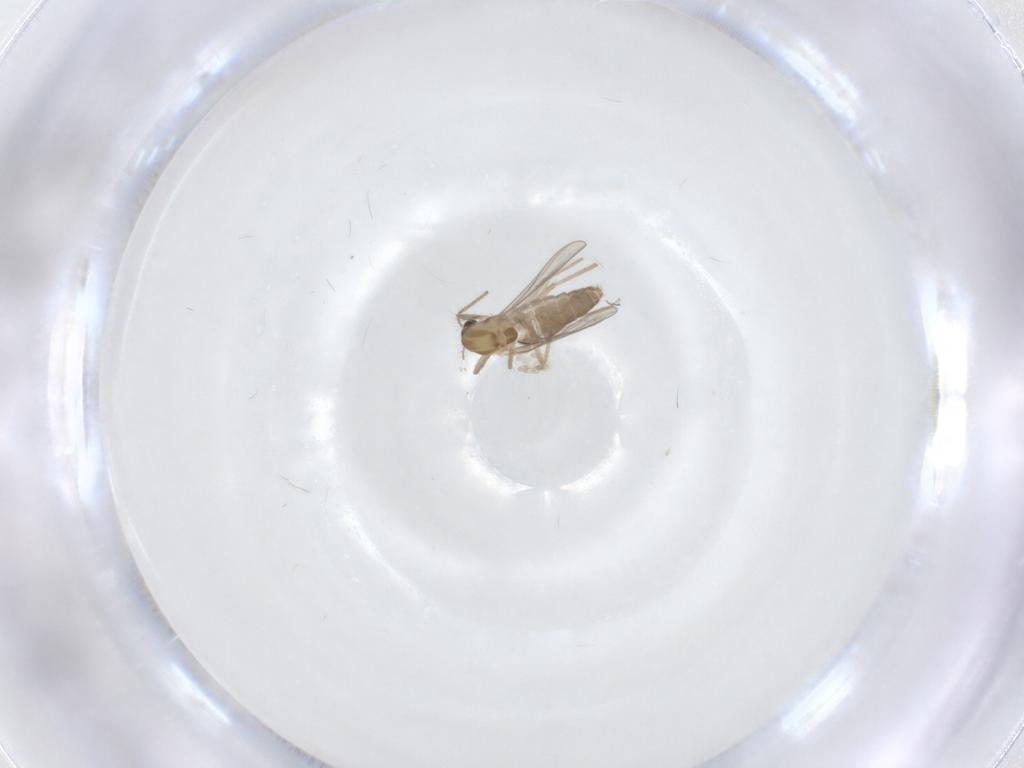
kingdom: Animalia
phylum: Arthropoda
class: Insecta
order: Diptera
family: Chironomidae
